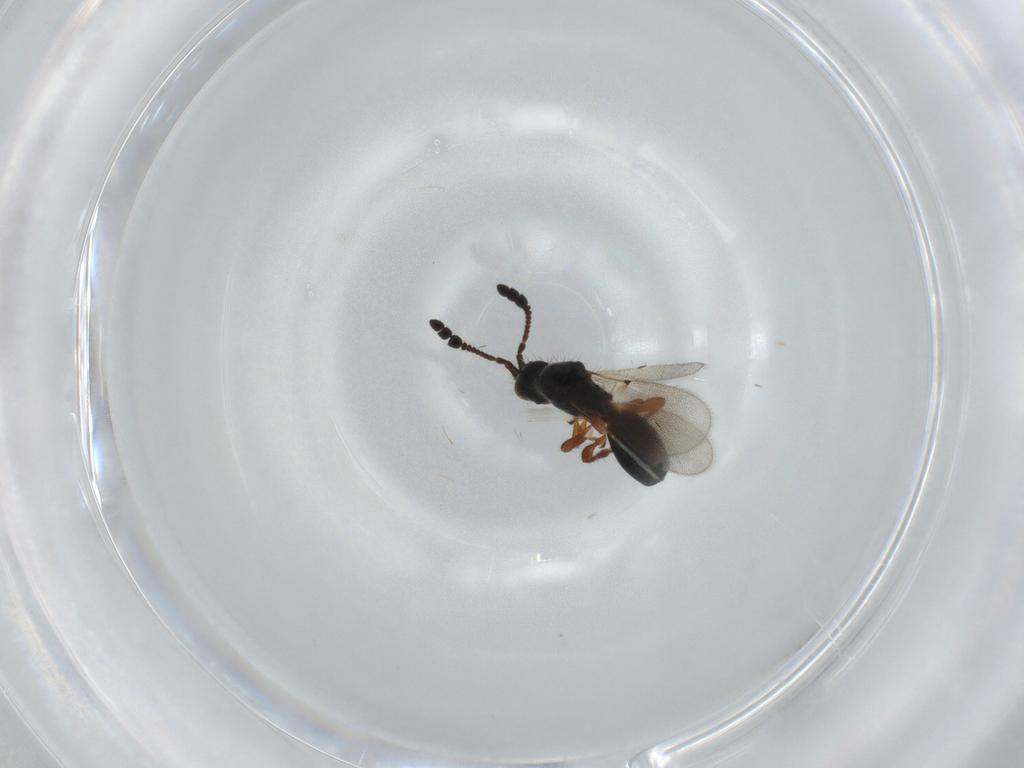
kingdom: Animalia
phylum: Arthropoda
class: Insecta
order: Hymenoptera
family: Diapriidae
